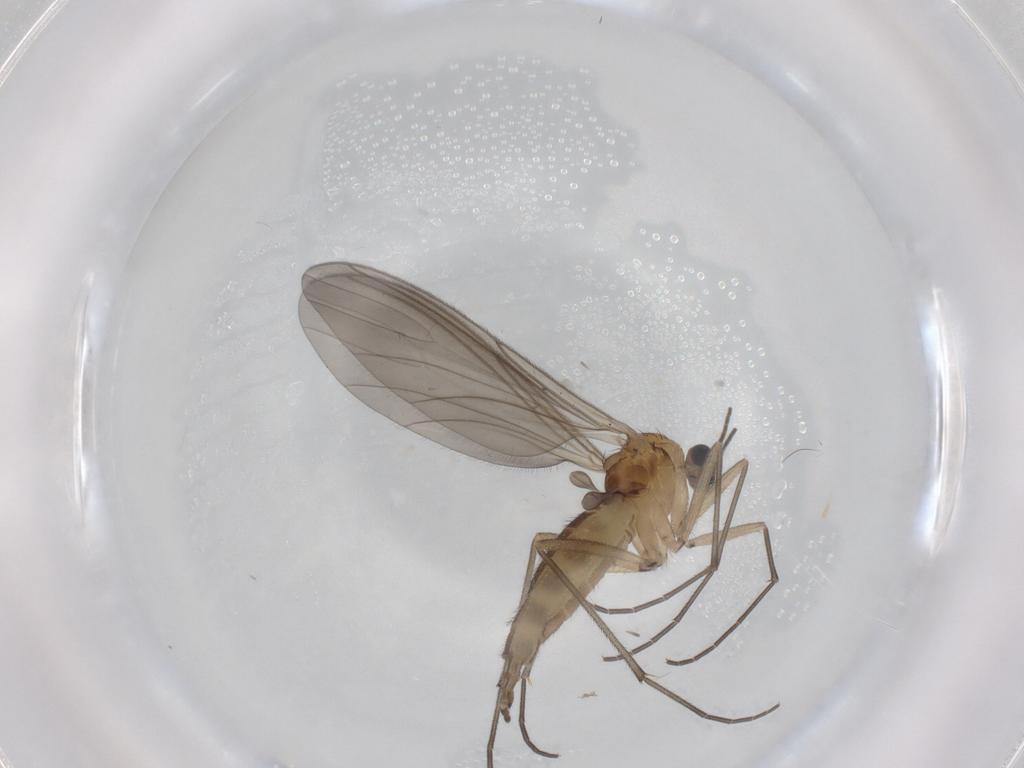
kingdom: Animalia
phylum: Arthropoda
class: Insecta
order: Diptera
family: Sciaridae
